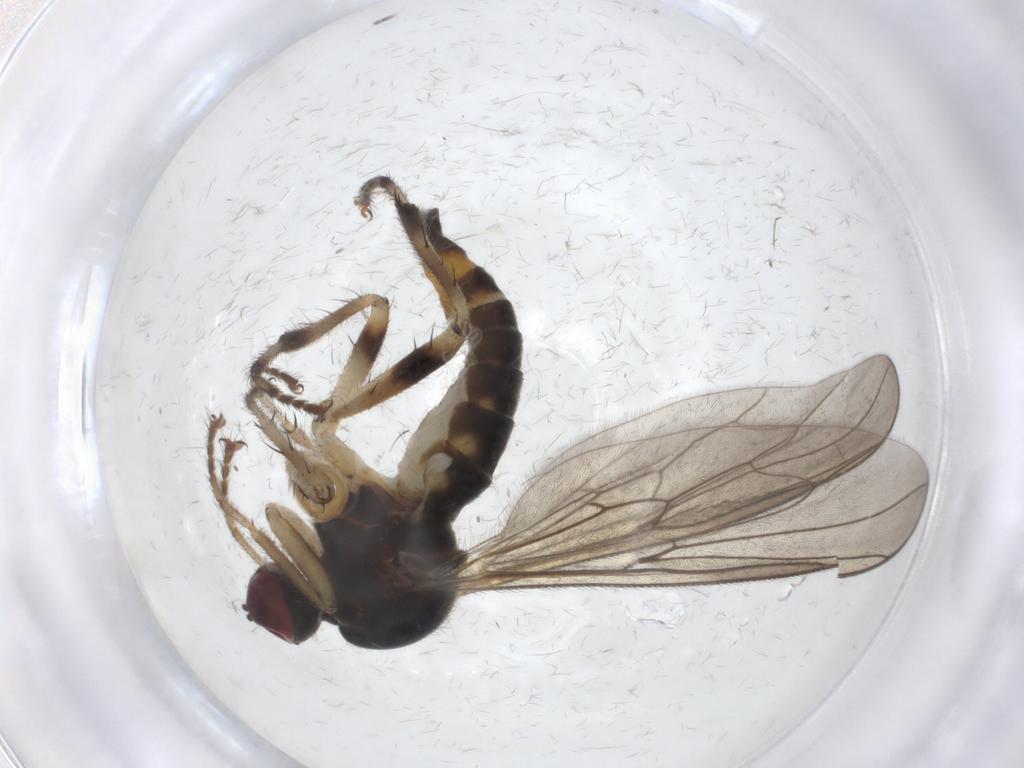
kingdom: Animalia
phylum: Arthropoda
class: Insecta
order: Diptera
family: Hybotidae
